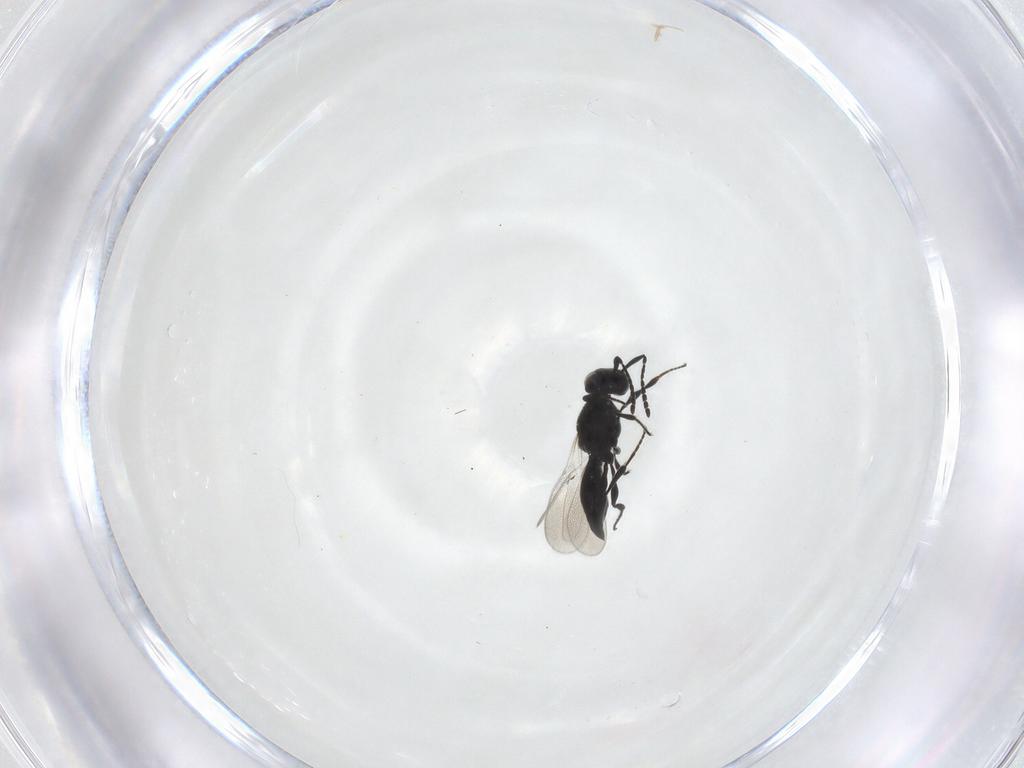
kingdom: Animalia
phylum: Arthropoda
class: Insecta
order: Hymenoptera
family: Platygastridae
